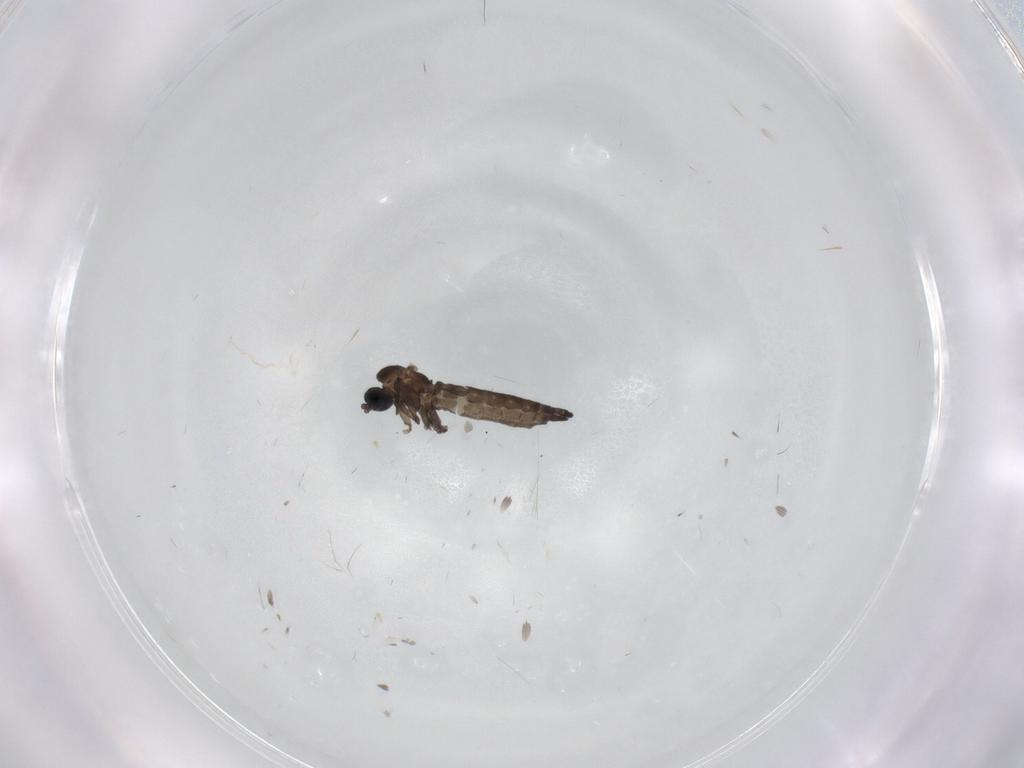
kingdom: Animalia
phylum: Arthropoda
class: Insecta
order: Diptera
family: Sciaridae
